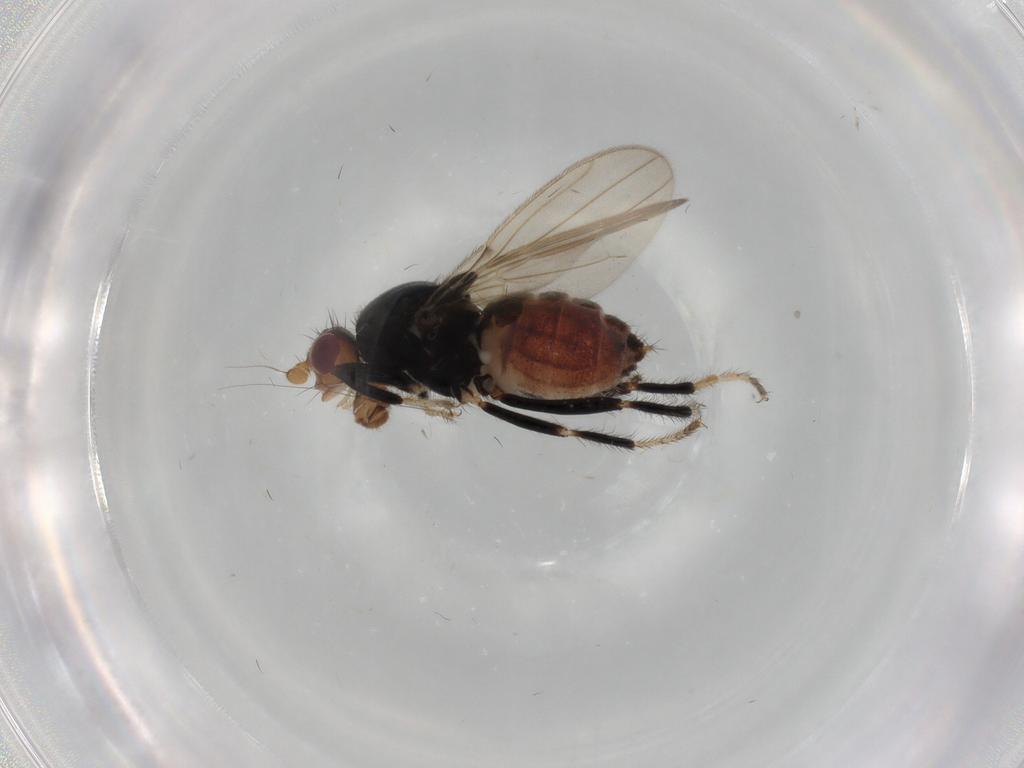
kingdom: Animalia
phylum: Arthropoda
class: Insecta
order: Diptera
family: Sphaeroceridae
